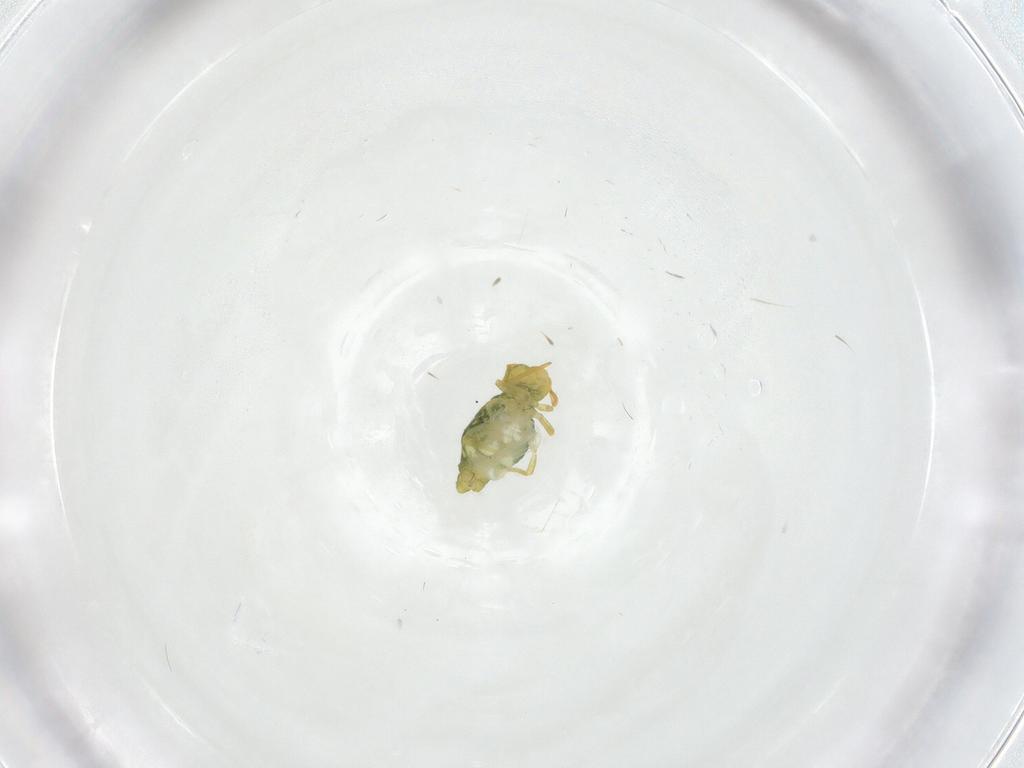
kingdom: Animalia
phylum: Arthropoda
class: Collembola
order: Symphypleona
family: Katiannidae
